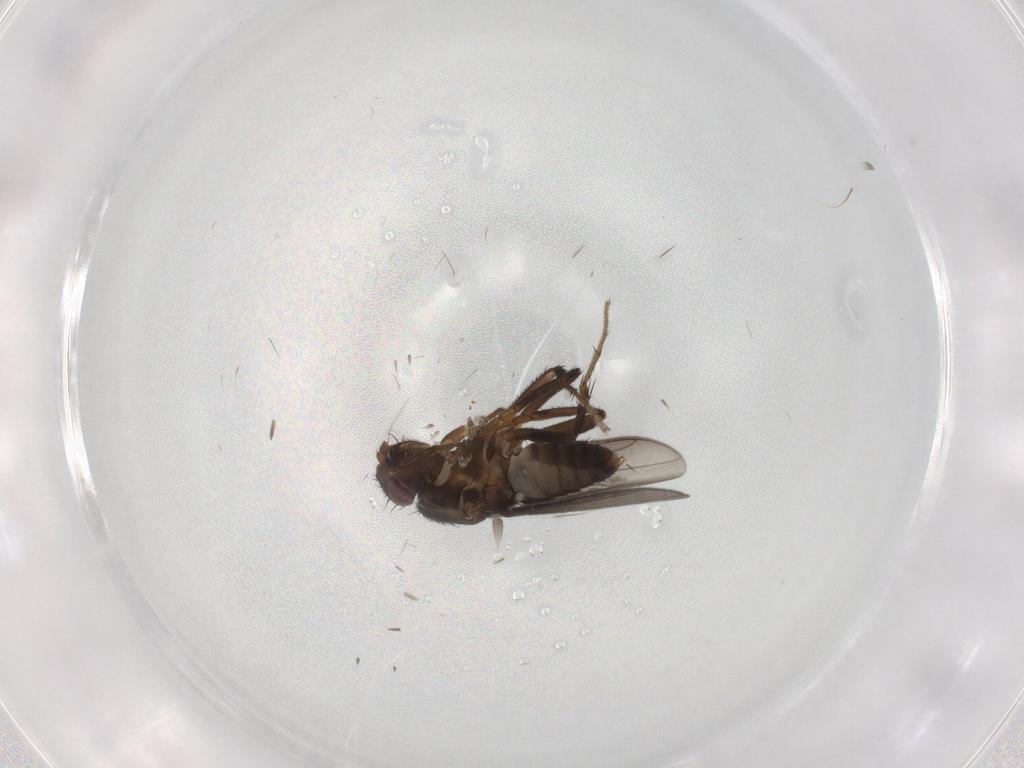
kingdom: Animalia
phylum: Arthropoda
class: Insecta
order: Diptera
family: Sphaeroceridae
